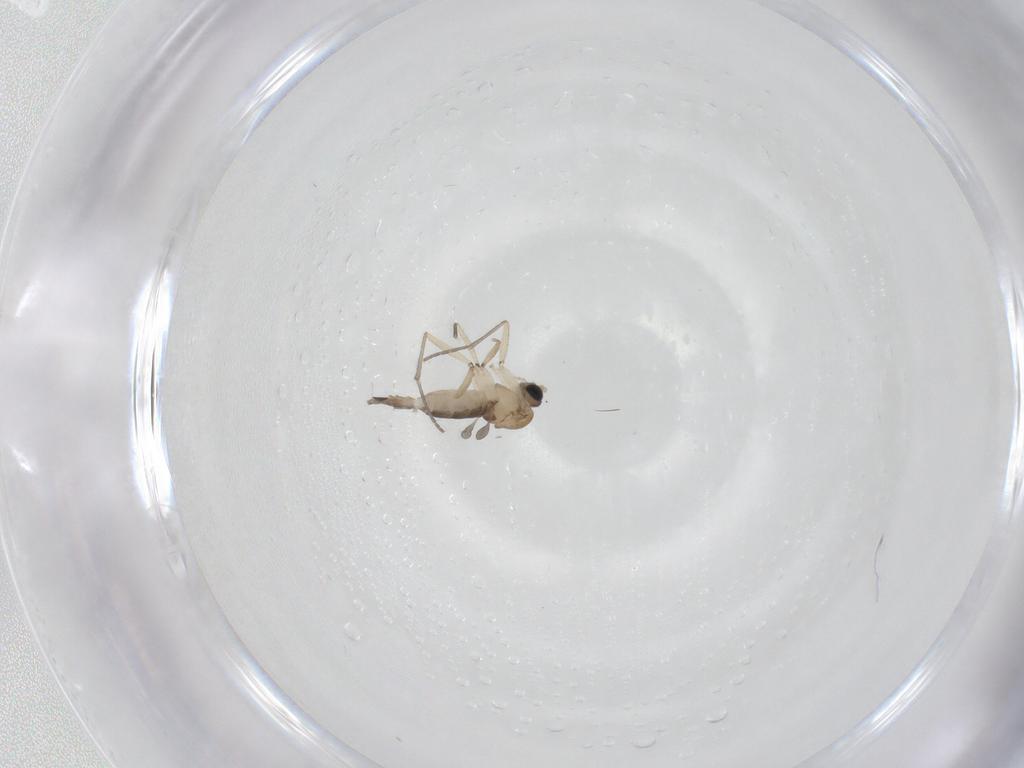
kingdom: Animalia
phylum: Arthropoda
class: Insecta
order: Diptera
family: Sciaridae
